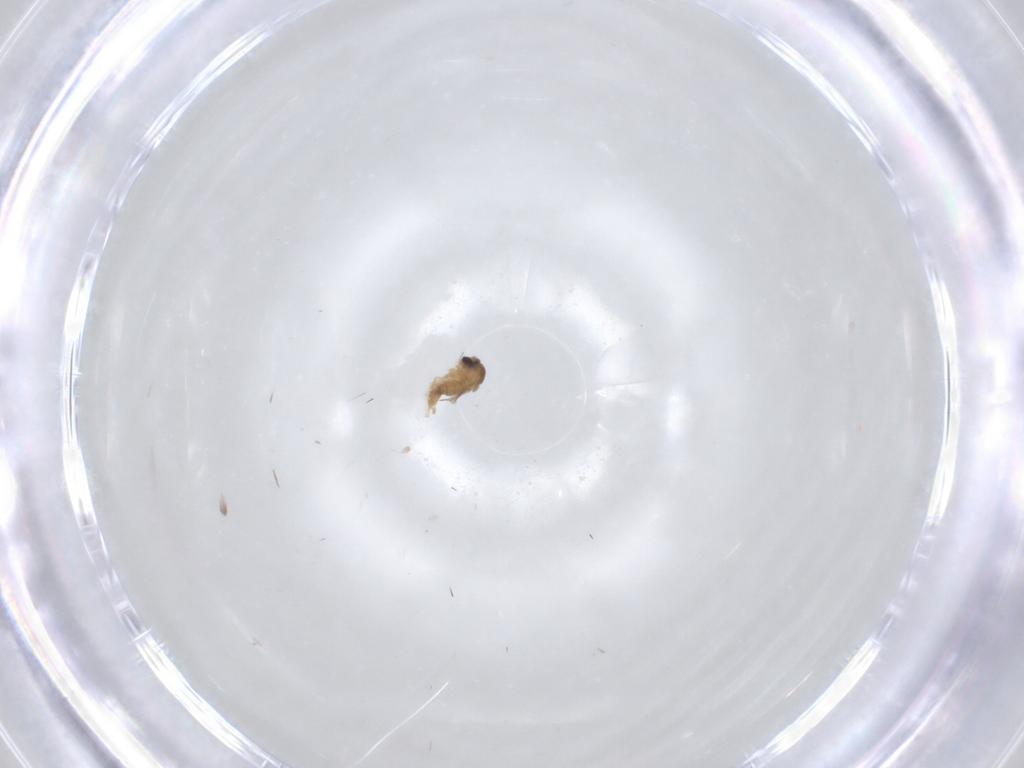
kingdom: Animalia
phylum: Arthropoda
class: Insecta
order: Diptera
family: Cecidomyiidae
